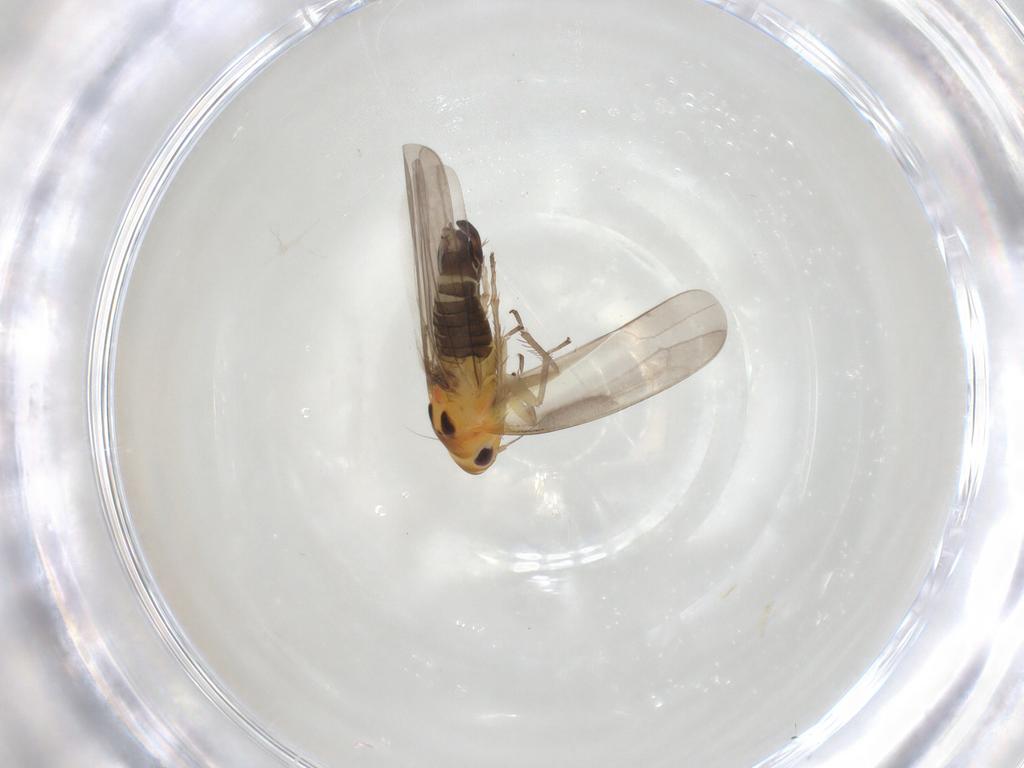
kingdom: Animalia
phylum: Arthropoda
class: Insecta
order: Hemiptera
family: Cicadellidae
